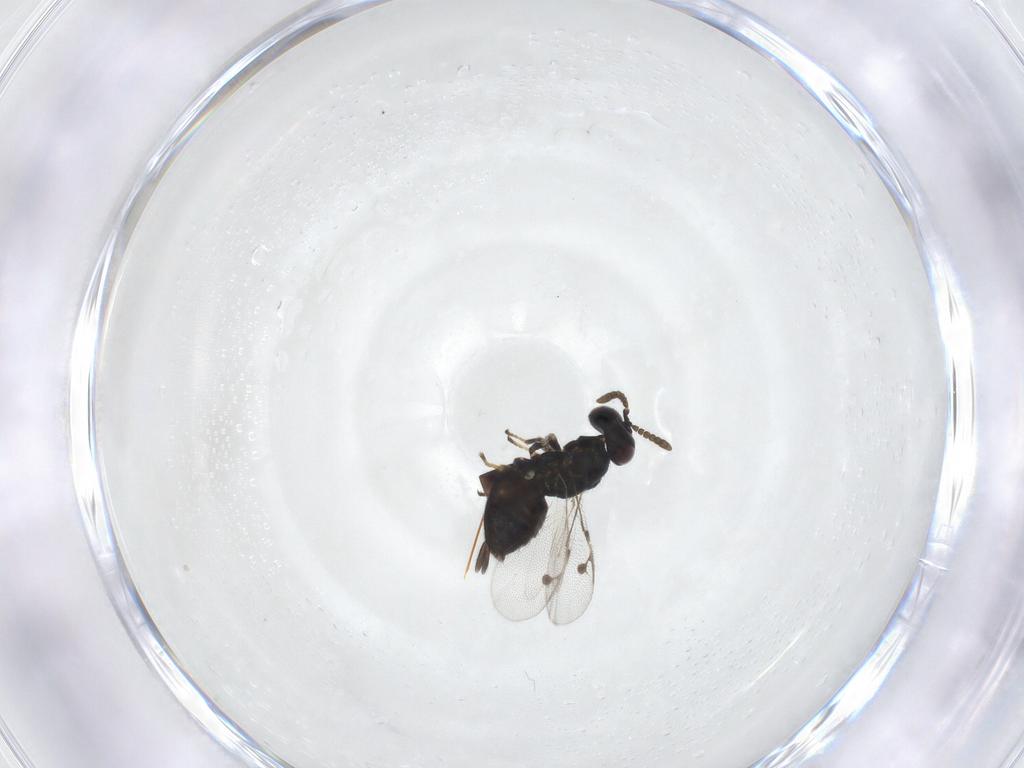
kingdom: Animalia
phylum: Arthropoda
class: Insecta
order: Hymenoptera
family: Pirenidae
